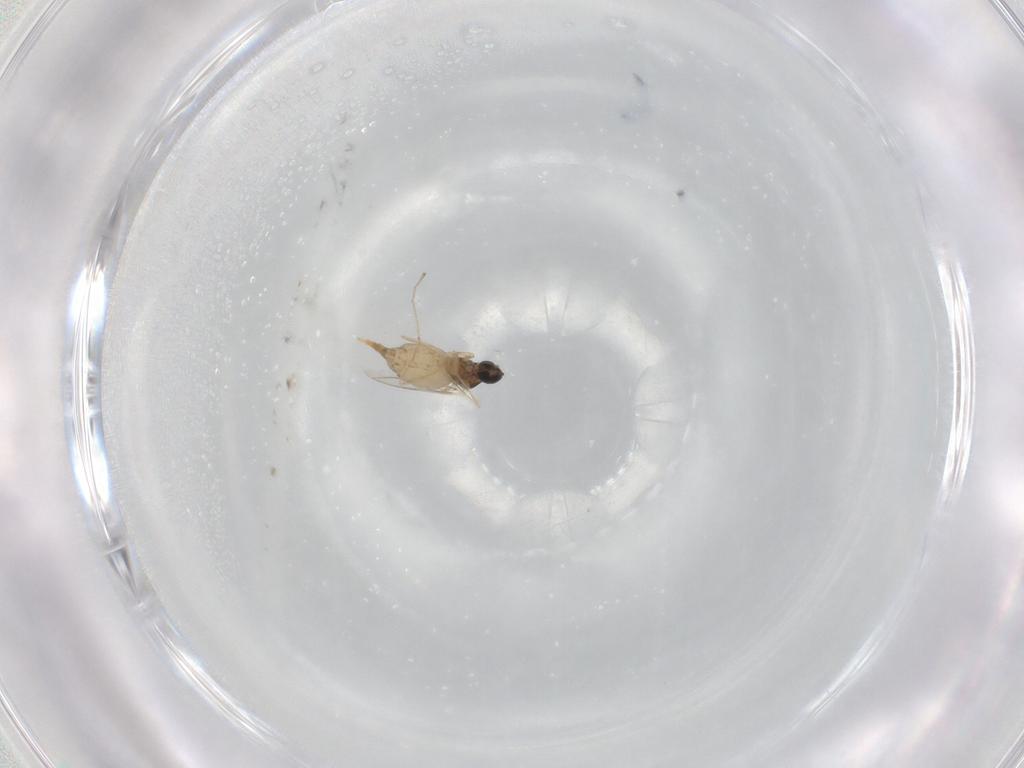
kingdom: Animalia
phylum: Arthropoda
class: Insecta
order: Diptera
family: Cecidomyiidae
